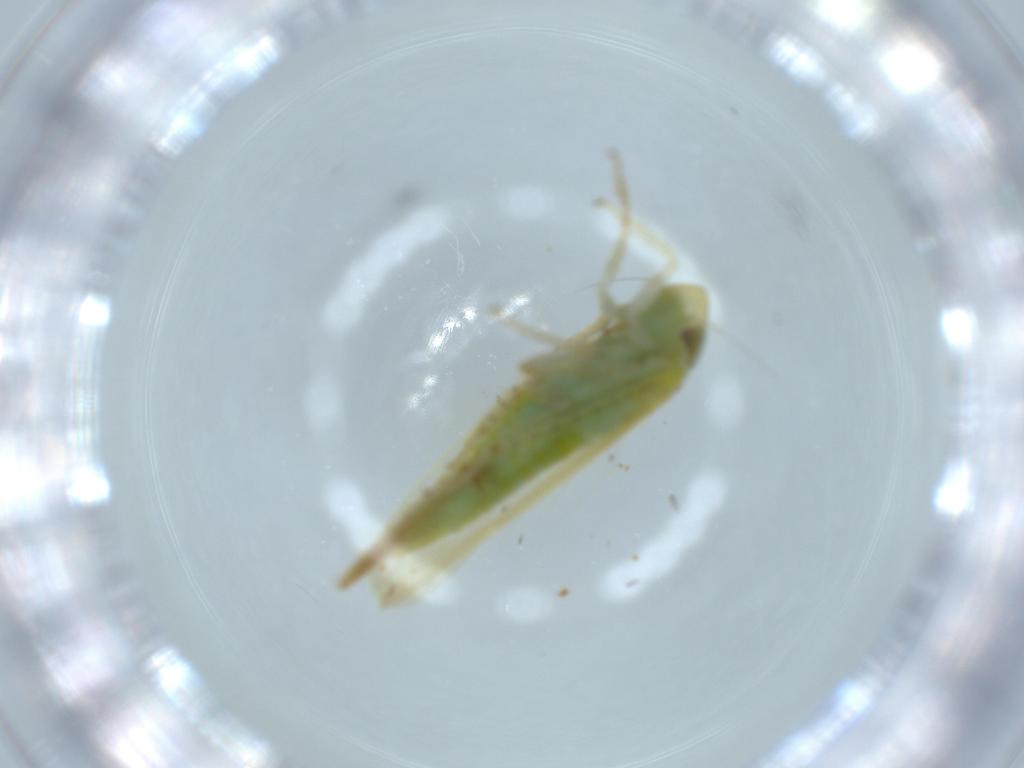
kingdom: Animalia
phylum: Arthropoda
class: Insecta
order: Hemiptera
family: Cicadellidae
